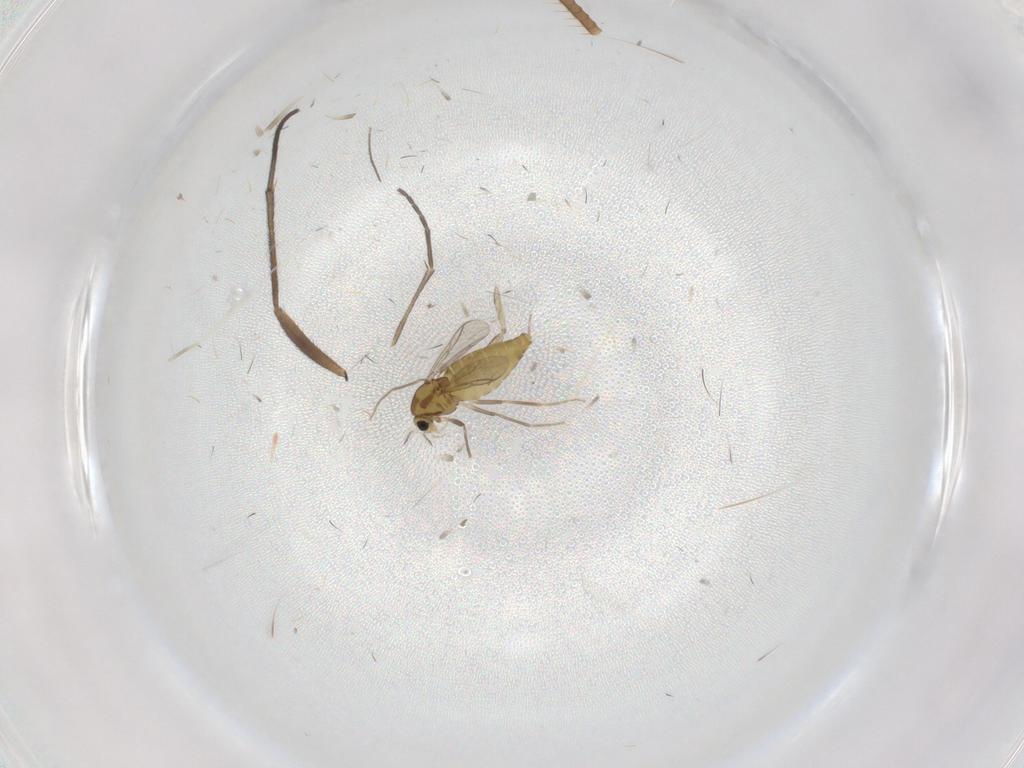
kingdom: Animalia
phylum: Arthropoda
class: Insecta
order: Diptera
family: Chironomidae
